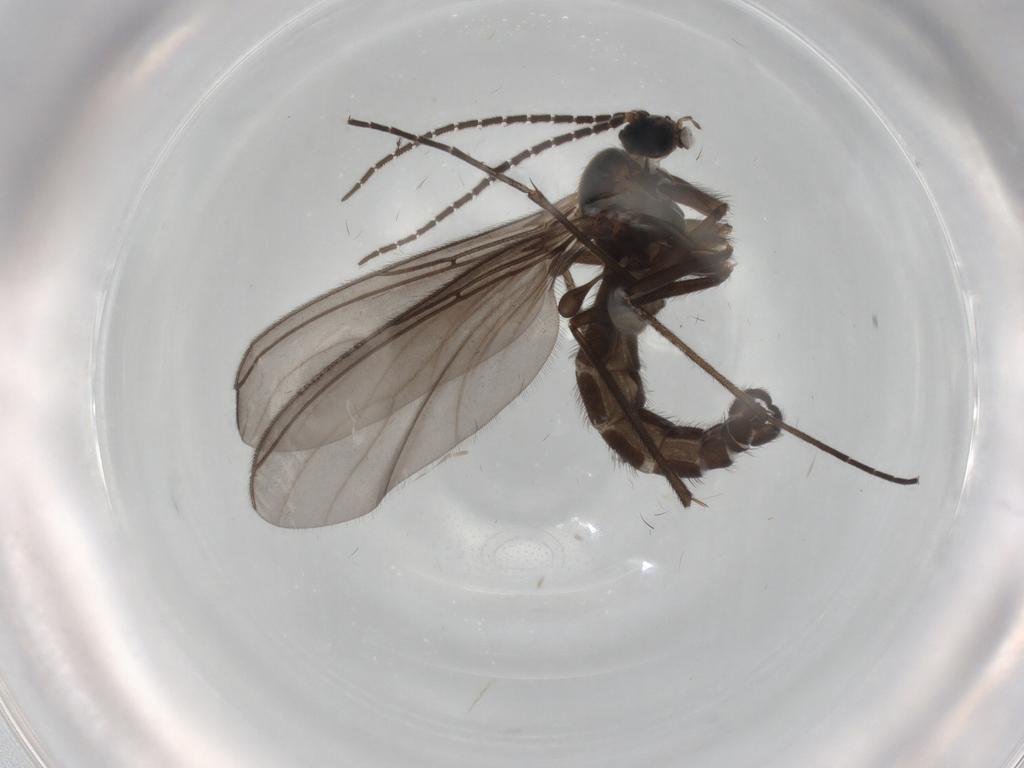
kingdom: Animalia
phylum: Arthropoda
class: Insecta
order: Diptera
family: Sciaridae
